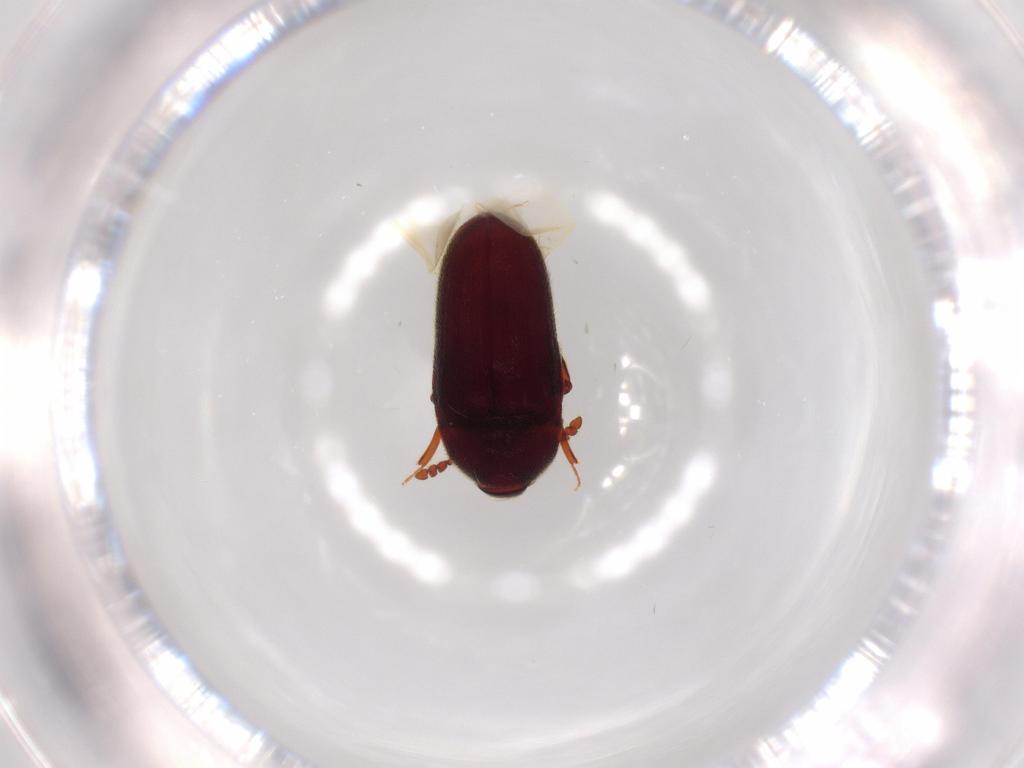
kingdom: Animalia
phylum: Arthropoda
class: Insecta
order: Coleoptera
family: Throscidae
